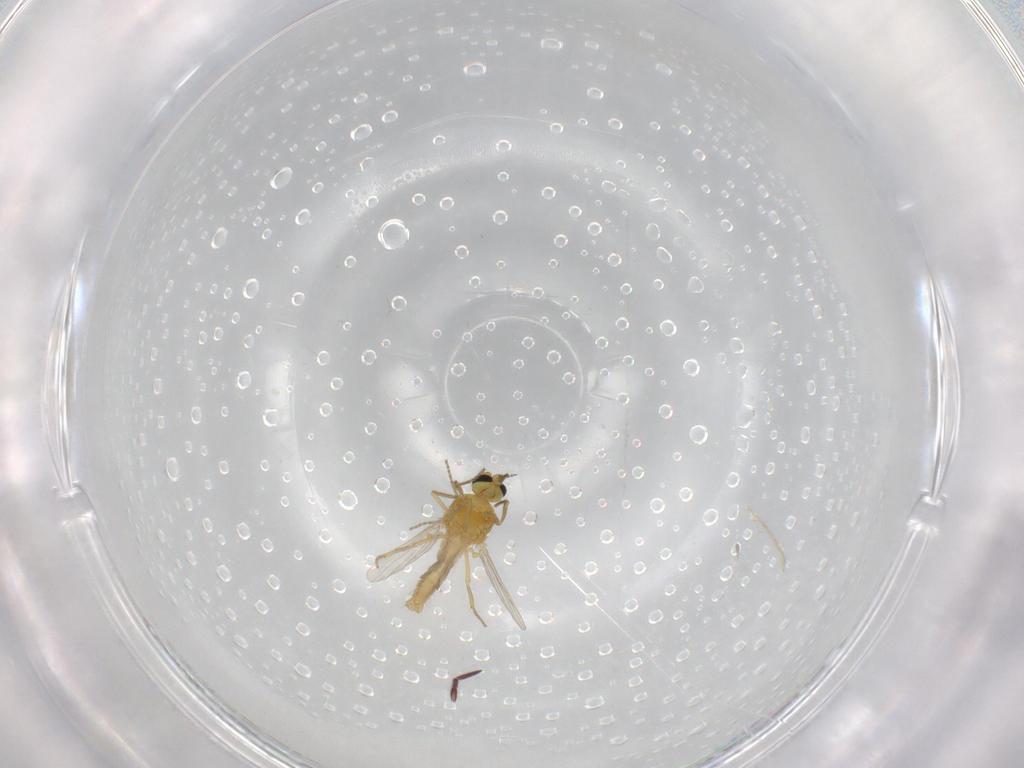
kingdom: Animalia
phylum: Arthropoda
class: Insecta
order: Diptera
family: Ceratopogonidae
